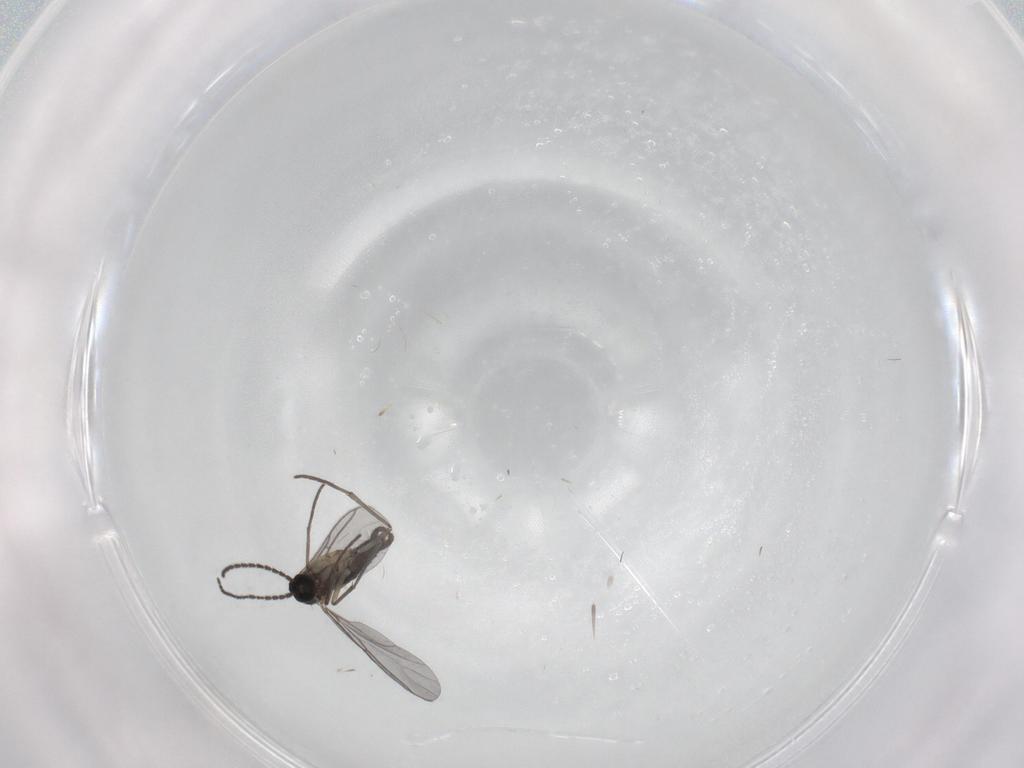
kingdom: Animalia
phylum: Arthropoda
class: Insecta
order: Diptera
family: Sciaridae
